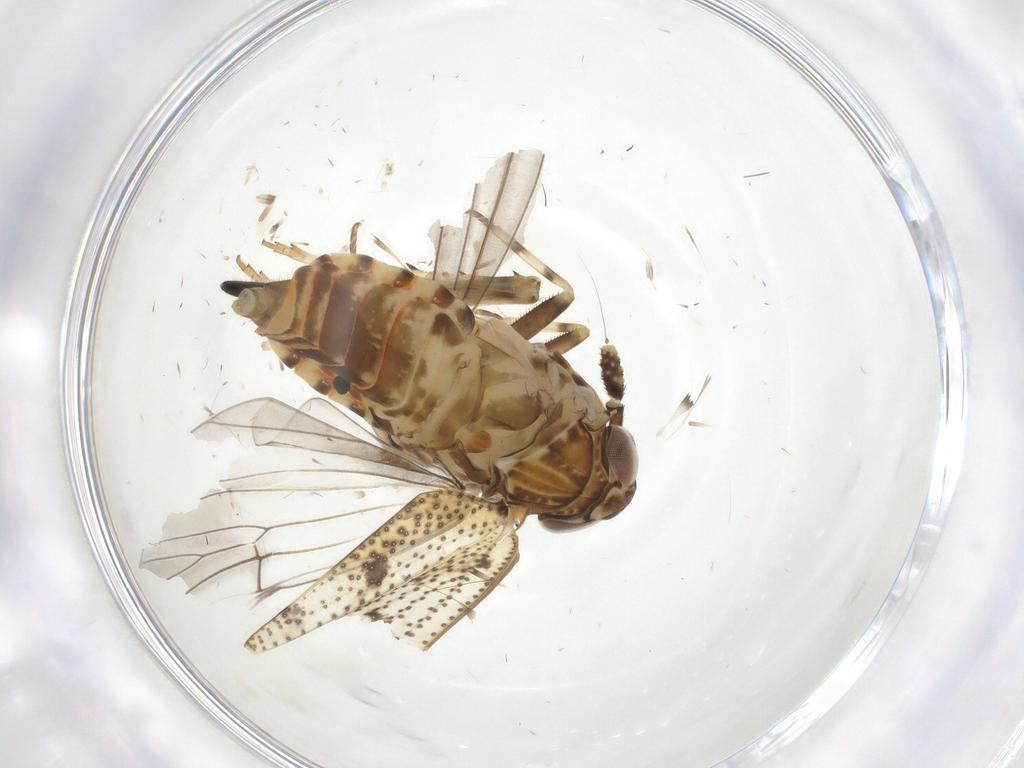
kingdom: Animalia
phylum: Arthropoda
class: Insecta
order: Hemiptera
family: Delphacidae
